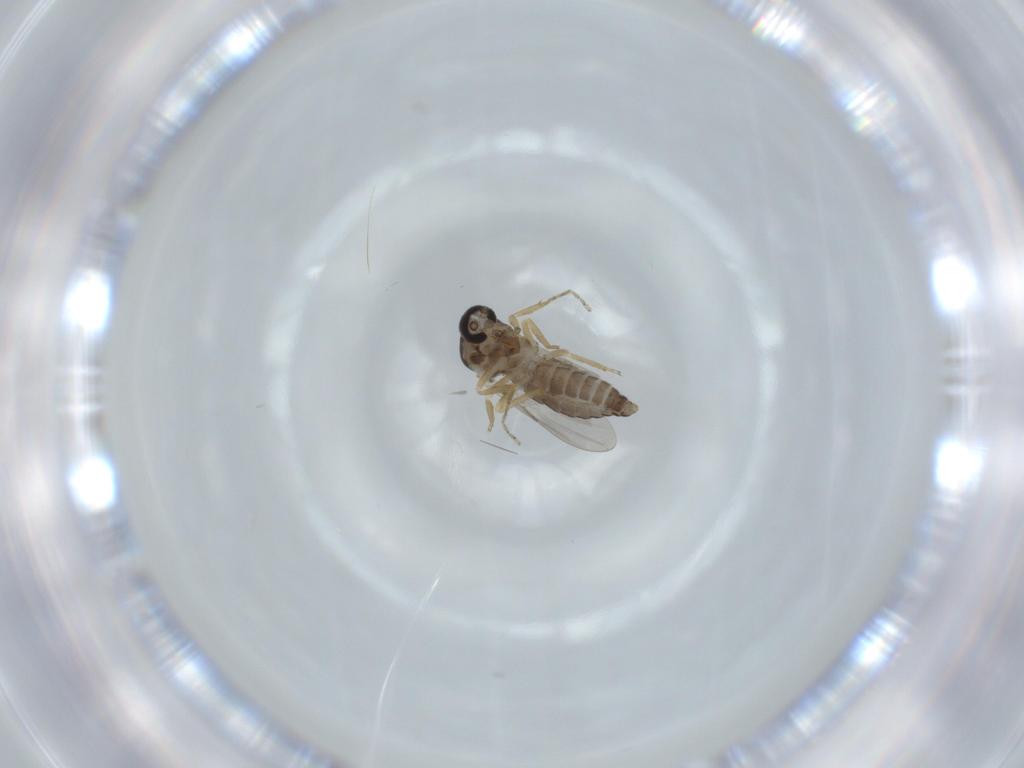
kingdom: Animalia
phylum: Arthropoda
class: Insecta
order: Diptera
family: Ceratopogonidae
